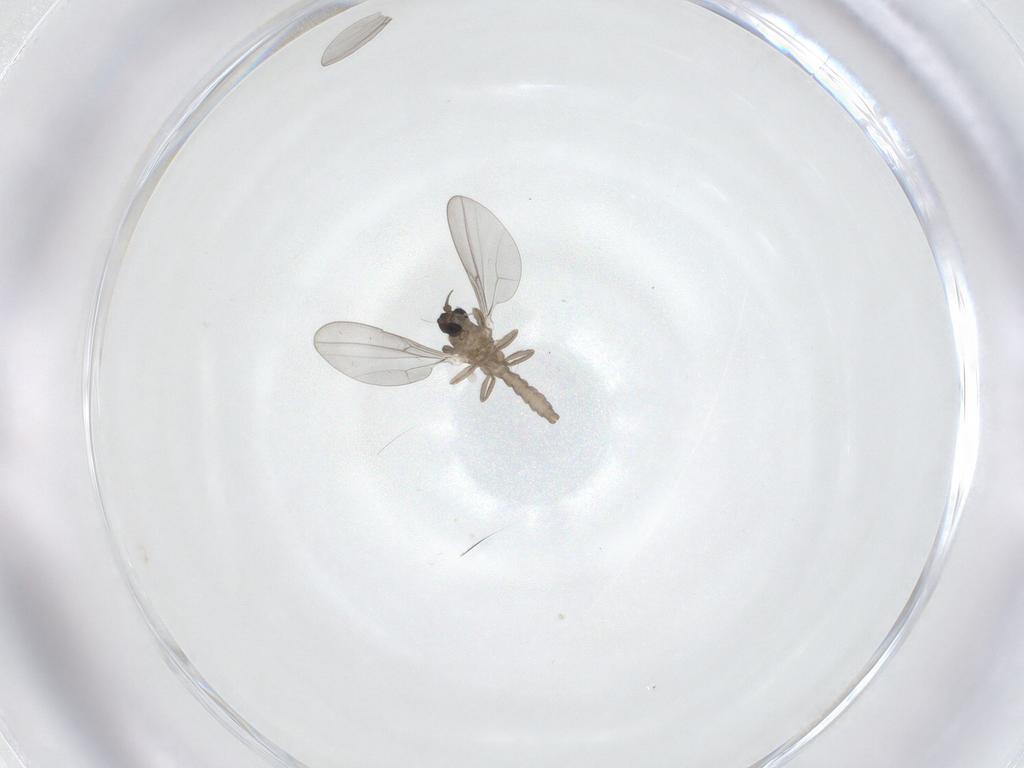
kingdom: Animalia
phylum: Arthropoda
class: Insecta
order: Diptera
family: Cecidomyiidae
